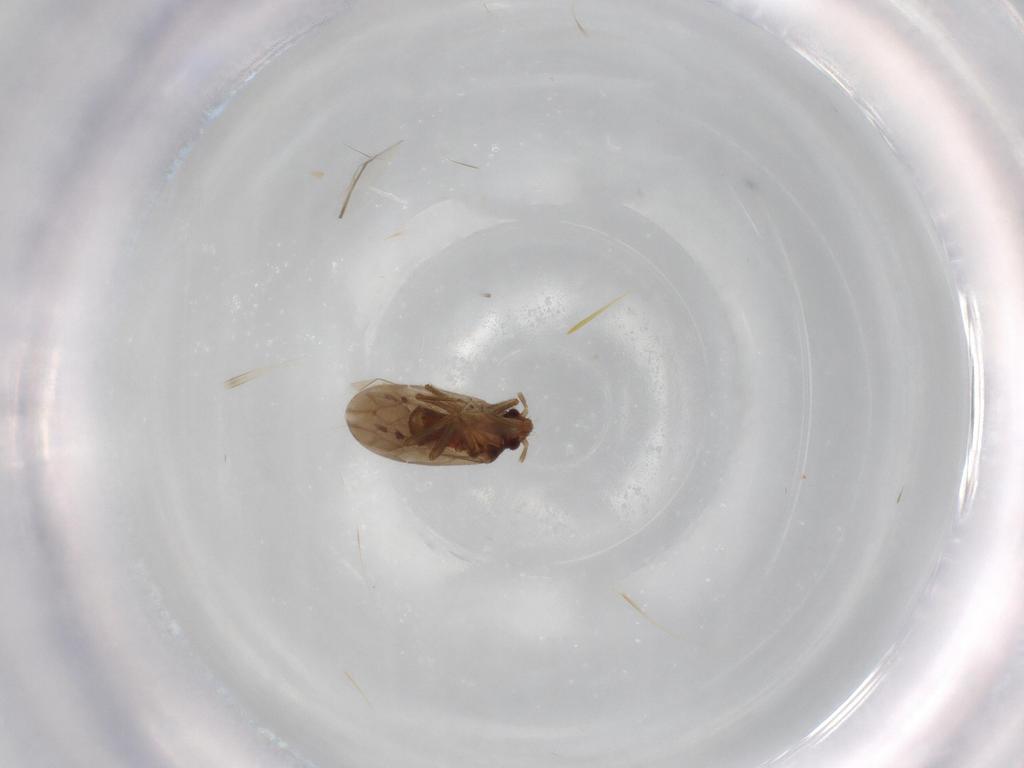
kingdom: Animalia
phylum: Arthropoda
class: Insecta
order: Hemiptera
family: Ceratocombidae
